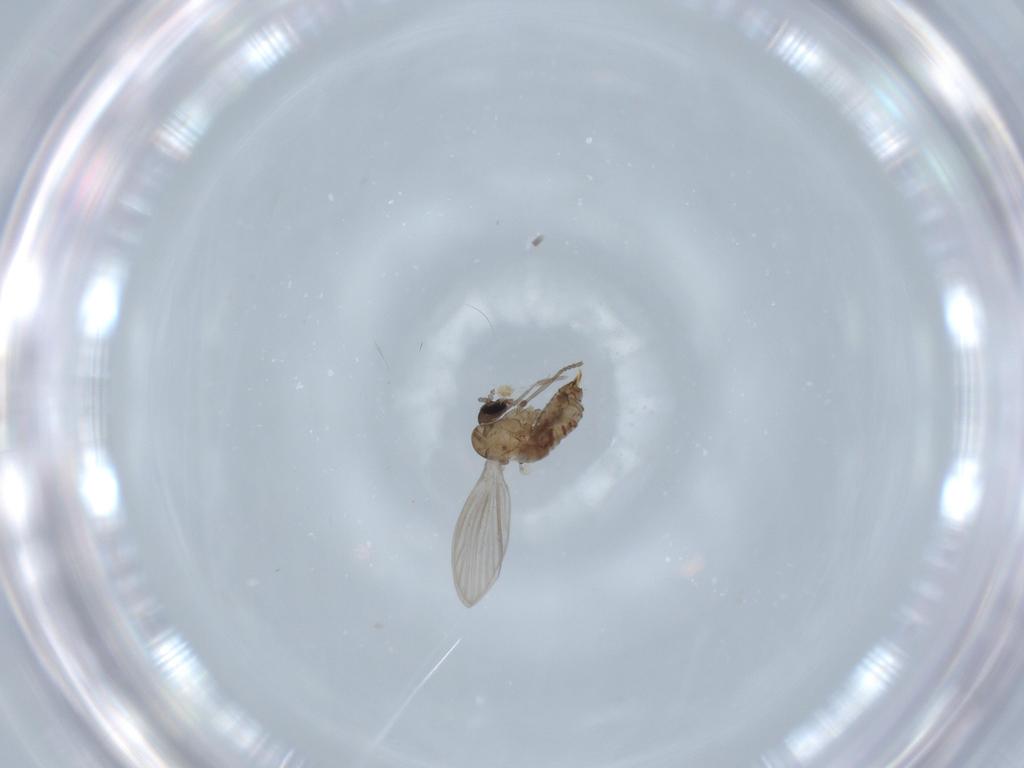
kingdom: Animalia
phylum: Arthropoda
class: Insecta
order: Diptera
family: Psychodidae
